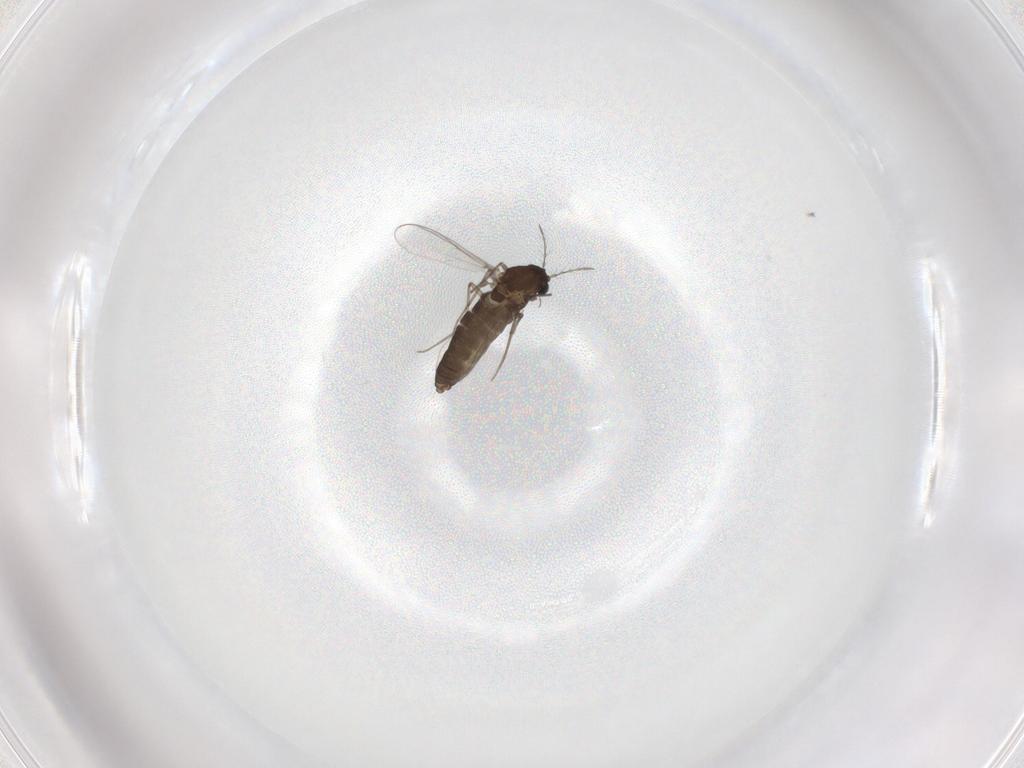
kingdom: Animalia
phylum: Arthropoda
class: Insecta
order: Diptera
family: Chironomidae
